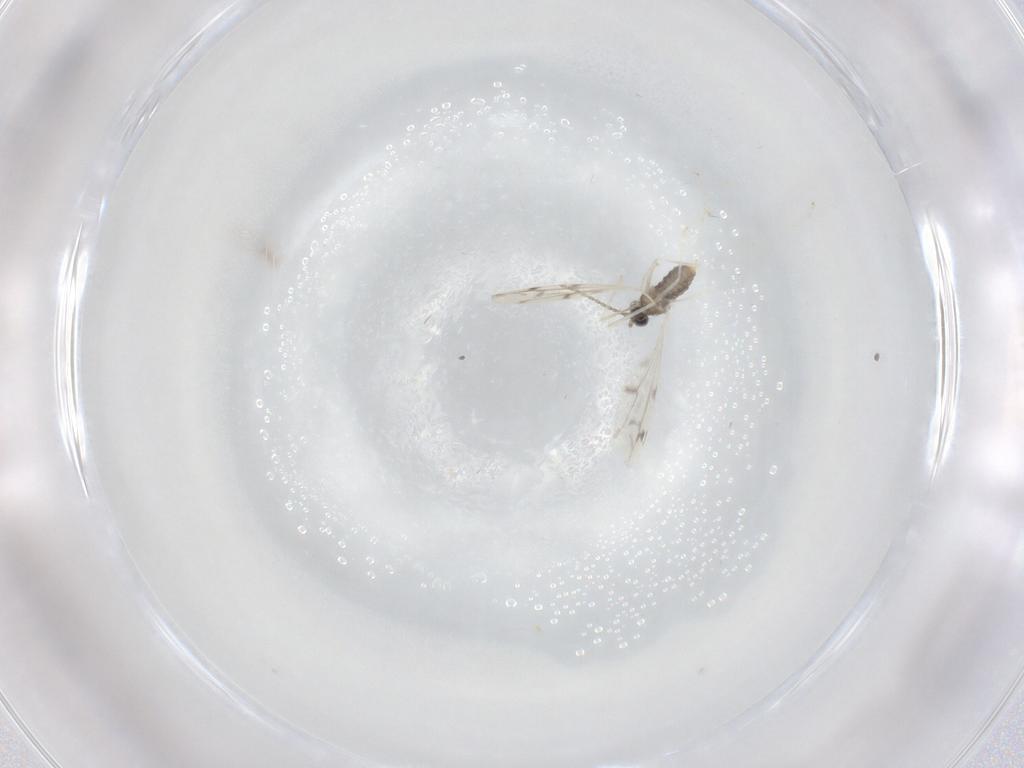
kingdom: Animalia
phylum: Arthropoda
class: Insecta
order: Diptera
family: Cecidomyiidae
